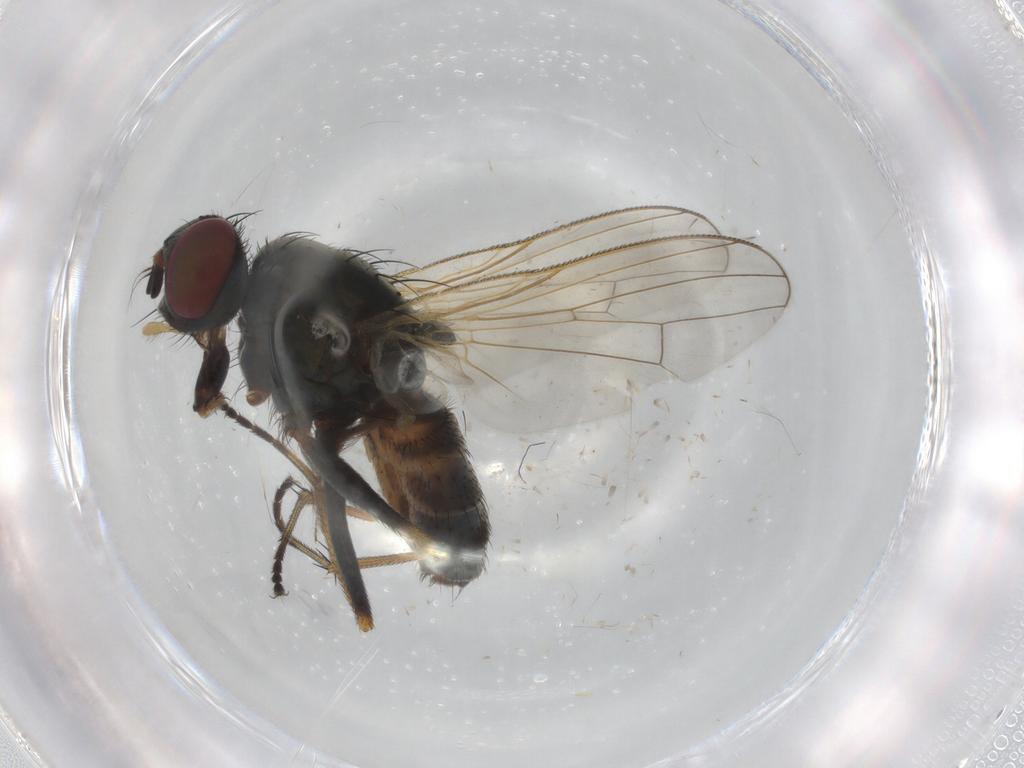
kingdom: Animalia
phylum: Arthropoda
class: Insecta
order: Diptera
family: Muscidae
